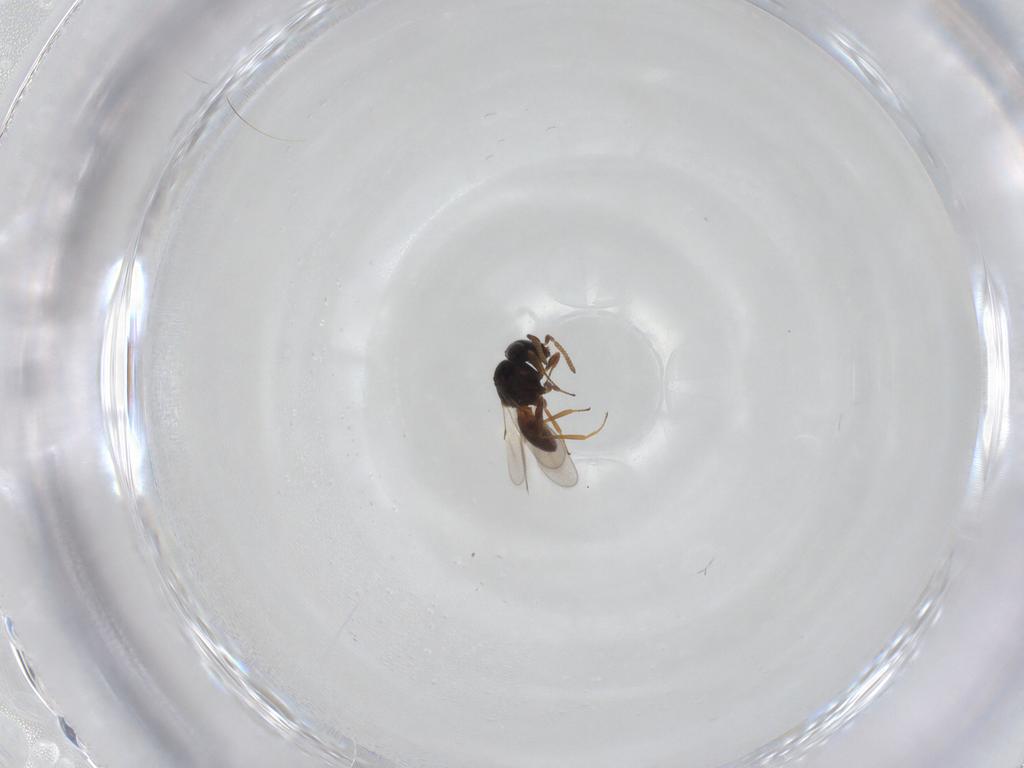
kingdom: Animalia
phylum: Arthropoda
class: Insecta
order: Hymenoptera
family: Scelionidae
